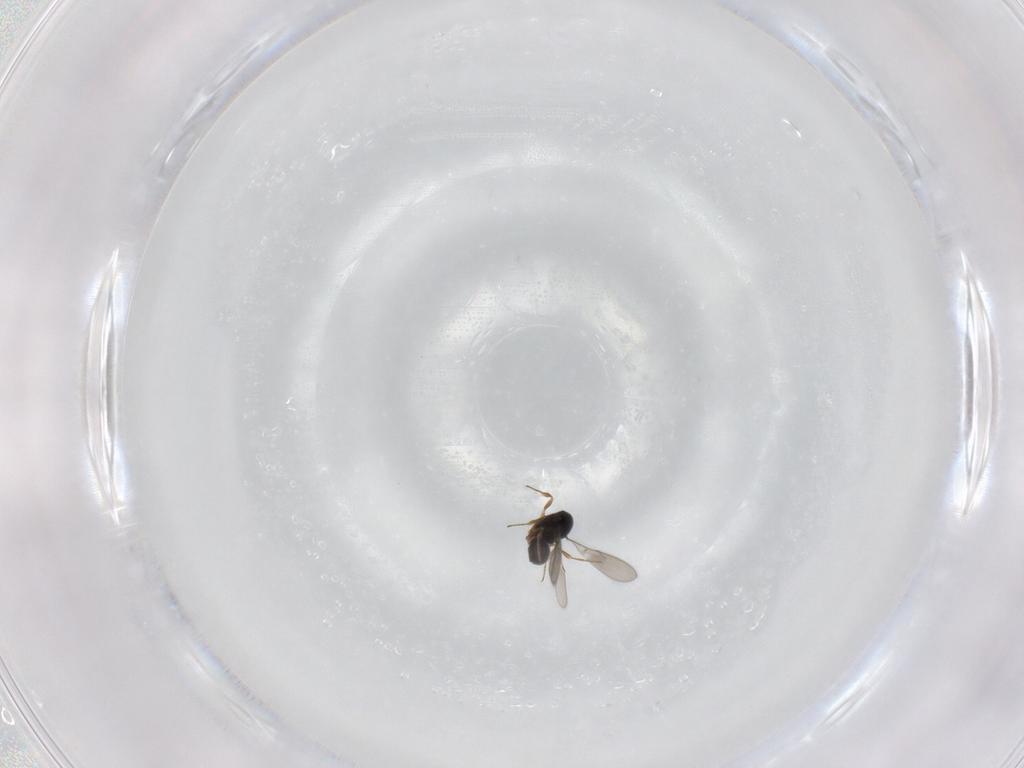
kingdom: Animalia
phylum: Arthropoda
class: Insecta
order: Hymenoptera
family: Scelionidae
